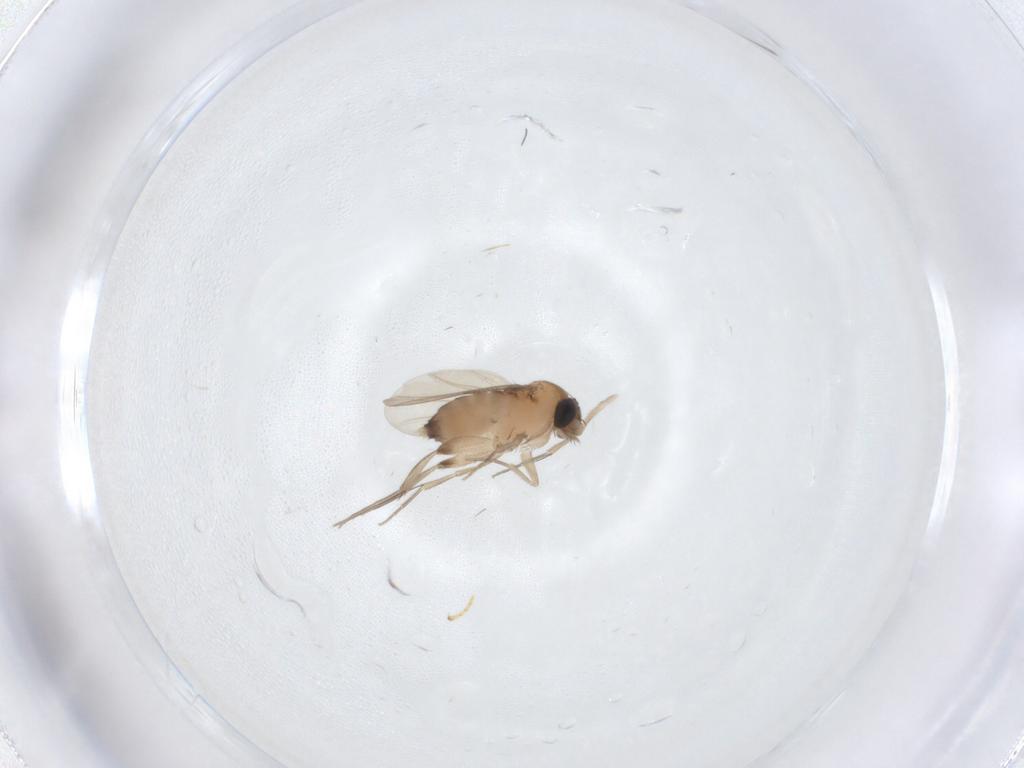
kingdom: Animalia
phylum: Arthropoda
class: Insecta
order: Diptera
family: Phoridae
